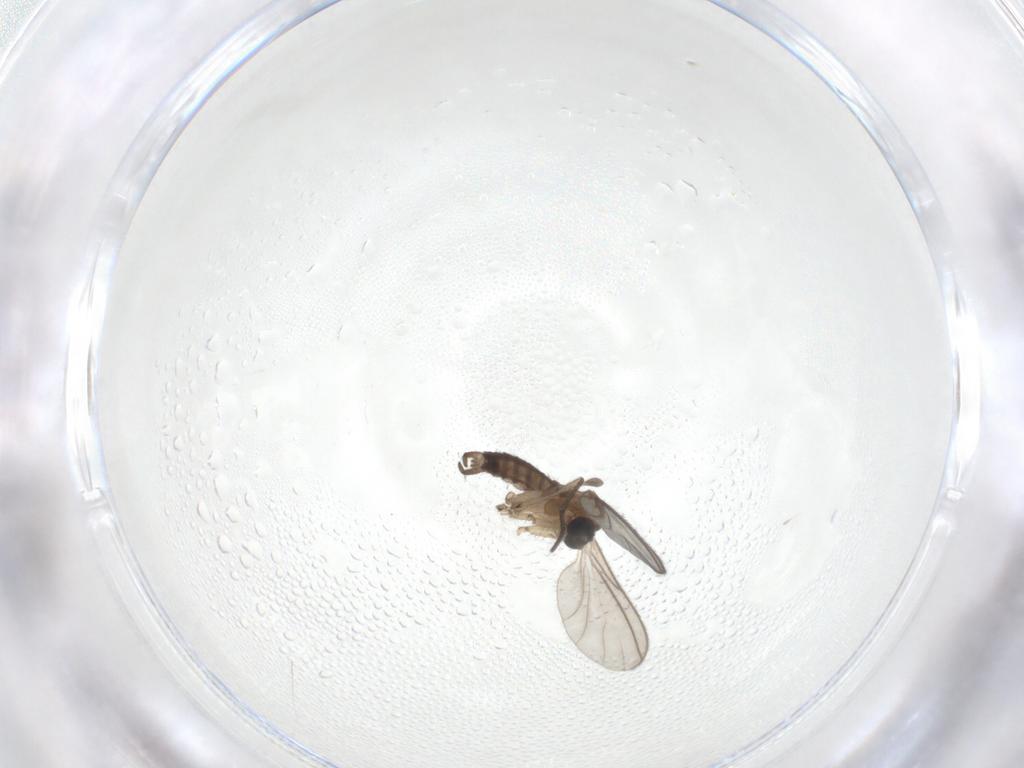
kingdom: Animalia
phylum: Arthropoda
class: Insecta
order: Diptera
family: Sciaridae
